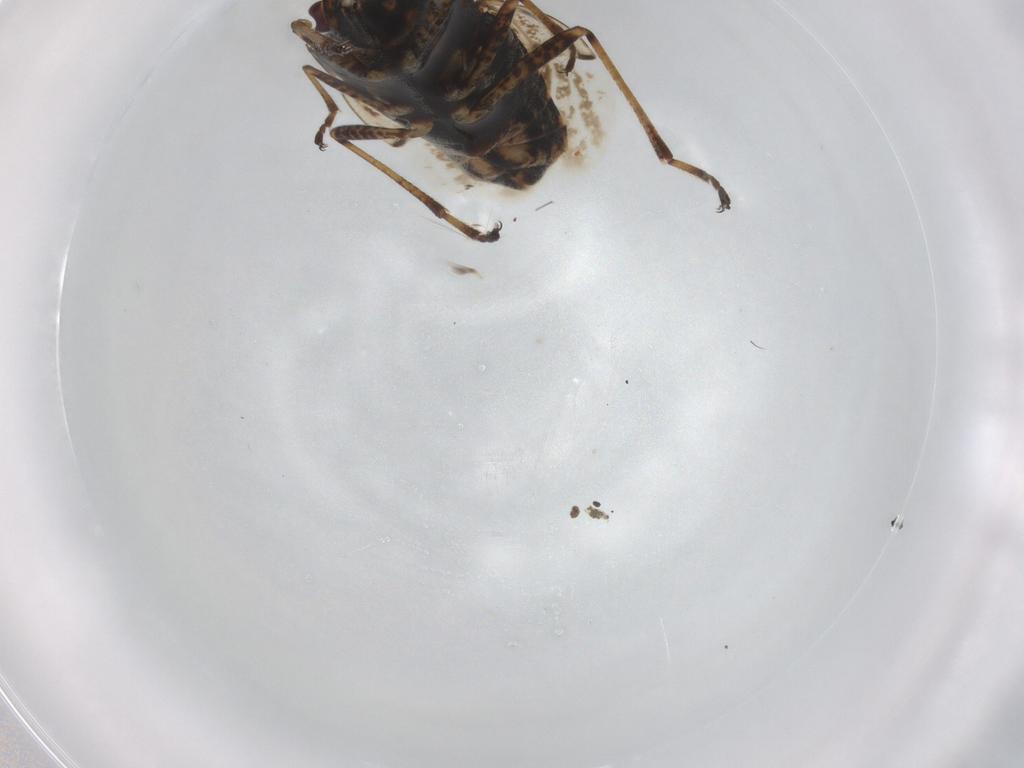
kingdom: Animalia
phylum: Arthropoda
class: Insecta
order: Hemiptera
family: Lygaeidae
